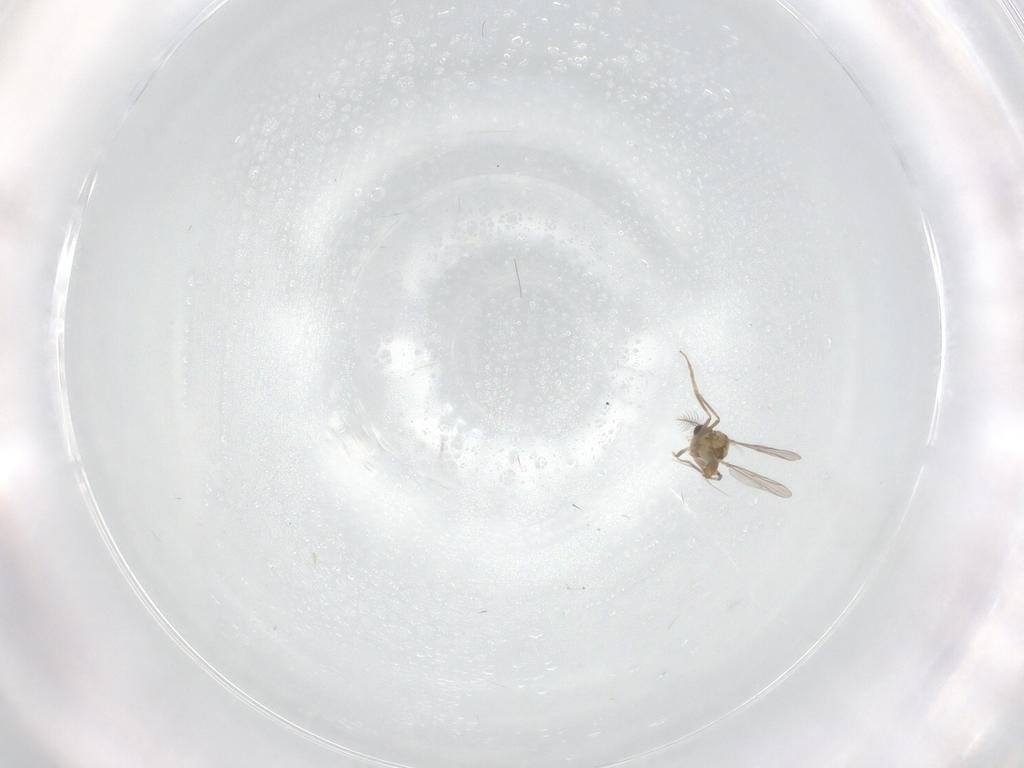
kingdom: Animalia
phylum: Arthropoda
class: Insecta
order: Diptera
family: Chironomidae
